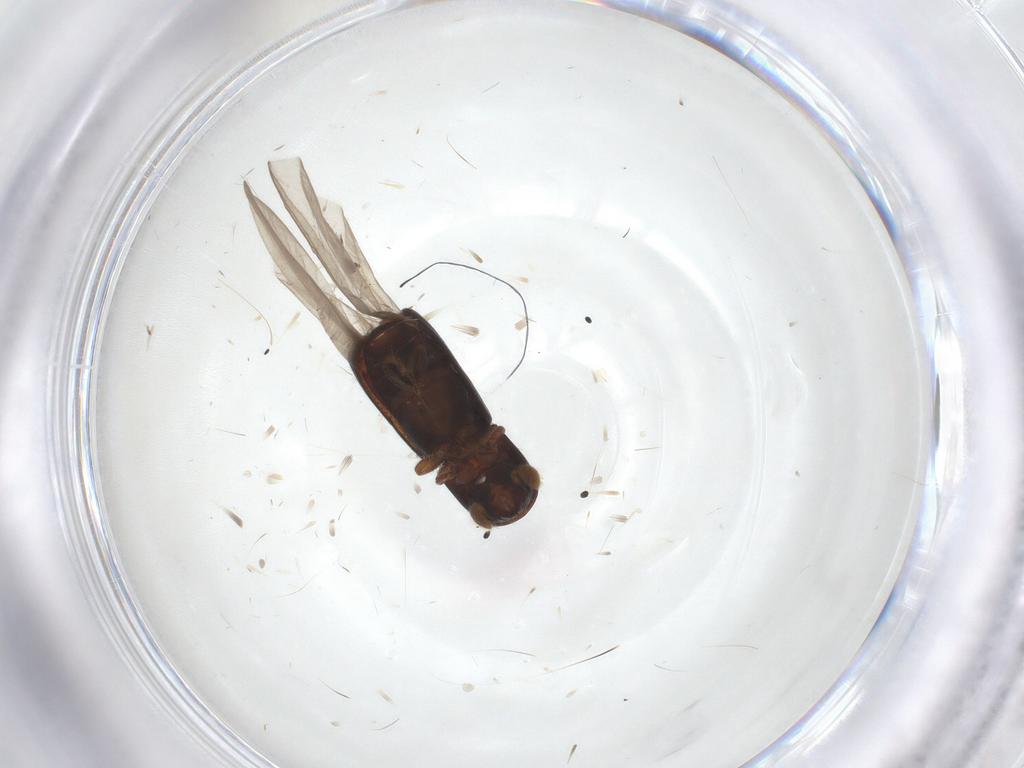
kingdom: Animalia
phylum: Arthropoda
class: Insecta
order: Coleoptera
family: Curculionidae
